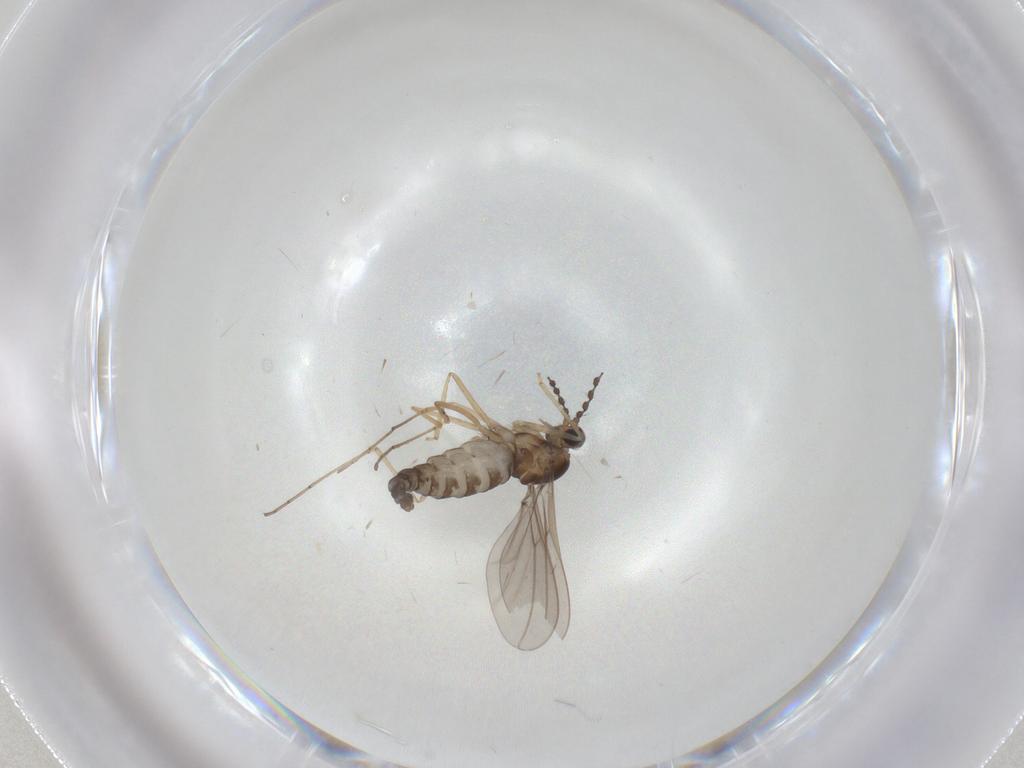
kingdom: Animalia
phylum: Arthropoda
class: Insecta
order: Diptera
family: Cecidomyiidae
